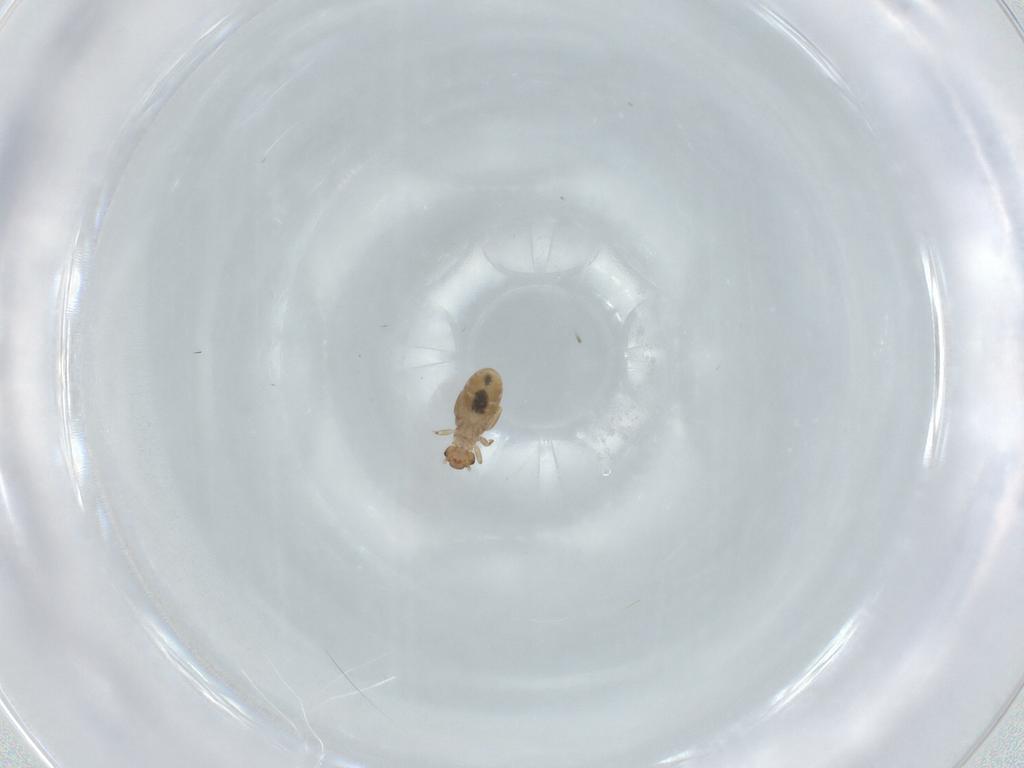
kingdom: Animalia
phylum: Arthropoda
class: Insecta
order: Psocodea
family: Liposcelididae
